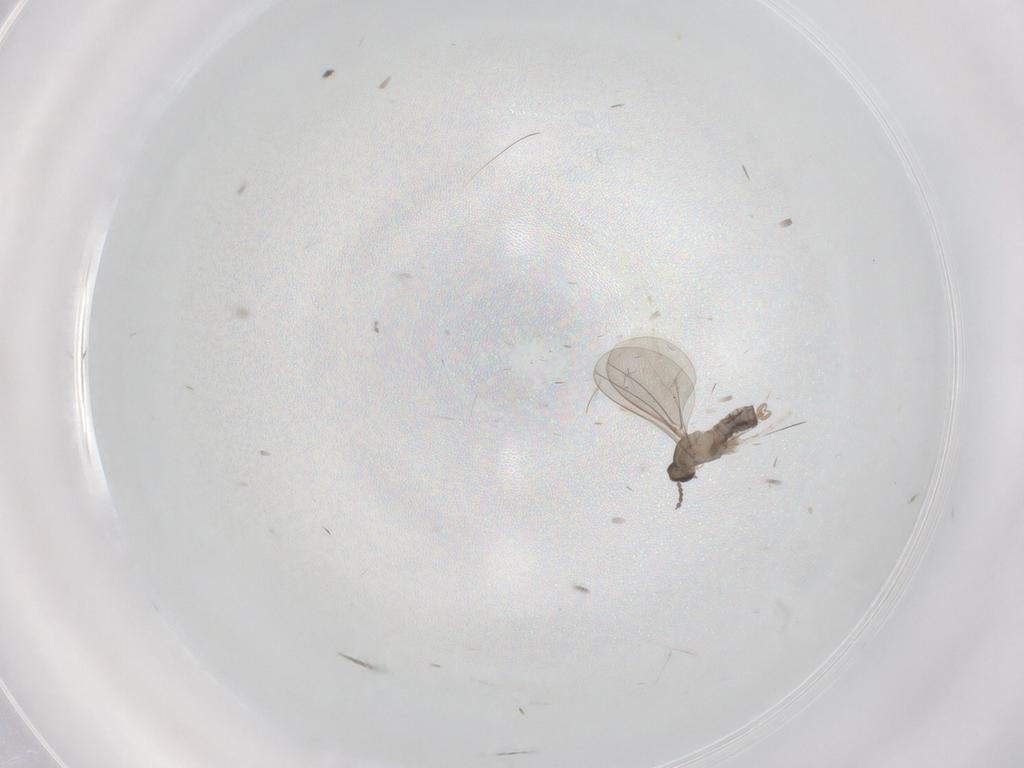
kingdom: Animalia
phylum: Arthropoda
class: Insecta
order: Diptera
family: Cecidomyiidae
